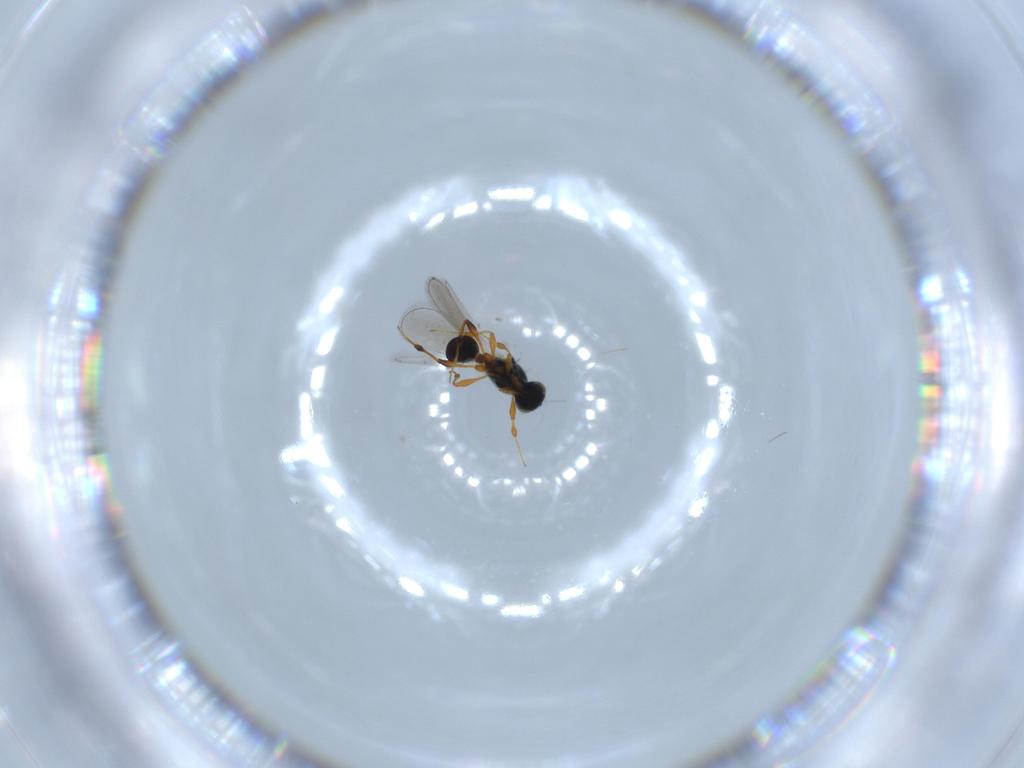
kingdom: Animalia
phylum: Arthropoda
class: Insecta
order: Hymenoptera
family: Platygastridae
